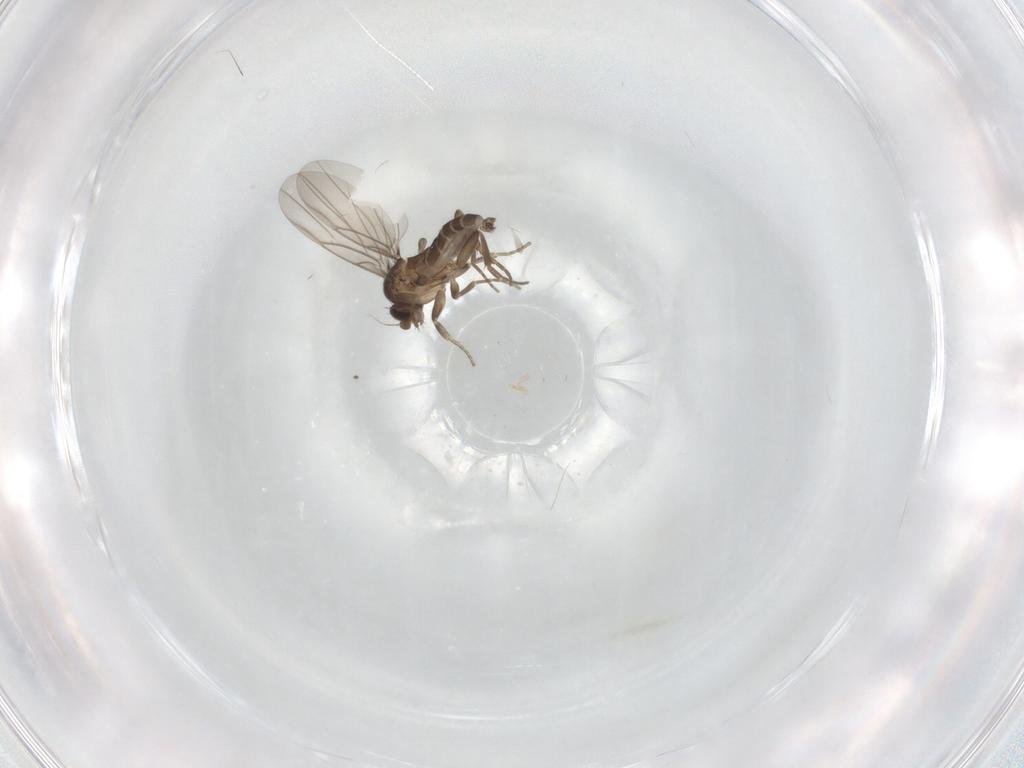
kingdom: Animalia
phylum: Arthropoda
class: Insecta
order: Diptera
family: Phoridae
